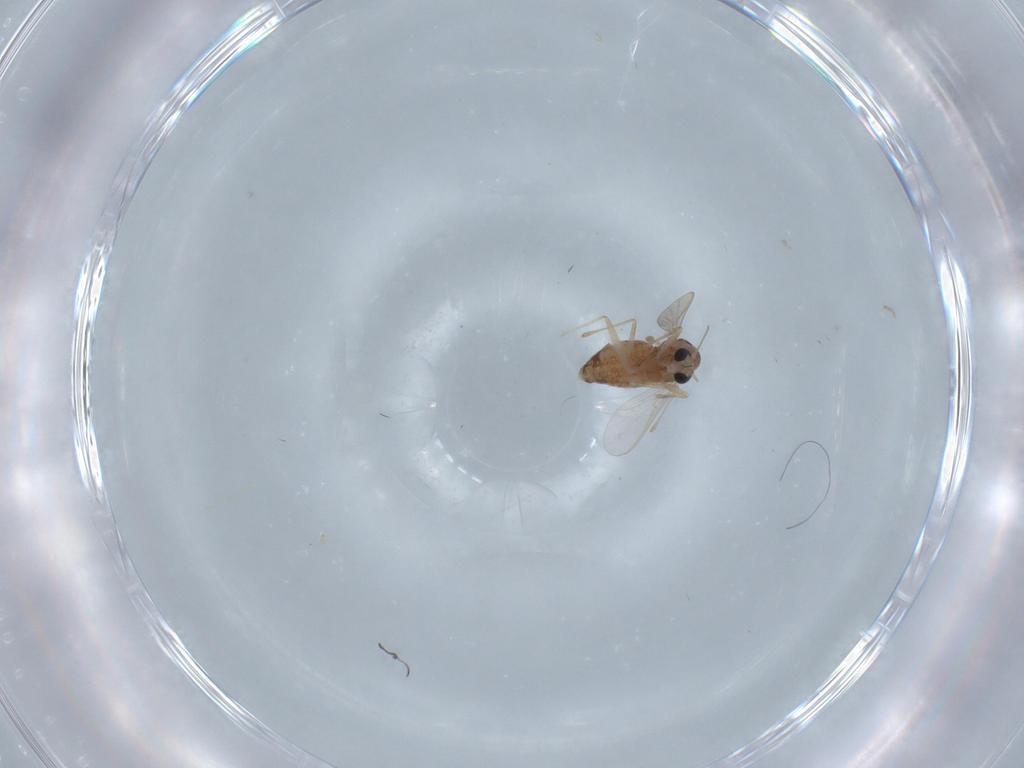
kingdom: Animalia
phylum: Arthropoda
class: Insecta
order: Diptera
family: Chironomidae
